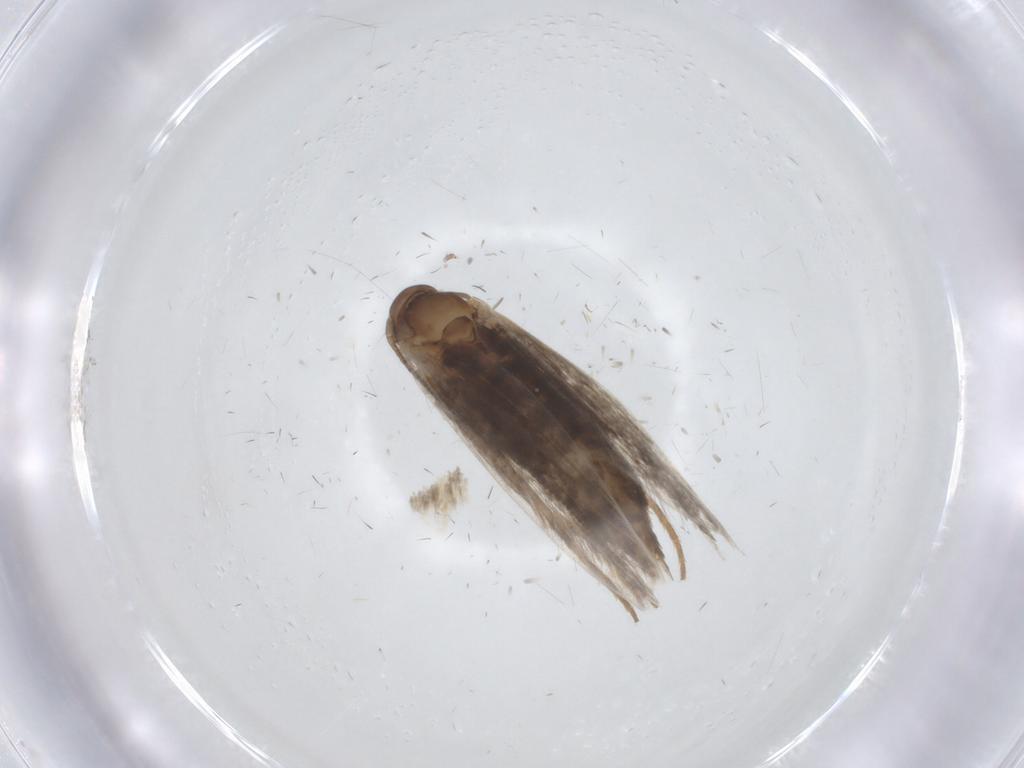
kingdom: Animalia
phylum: Arthropoda
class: Insecta
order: Lepidoptera
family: Elachistidae
